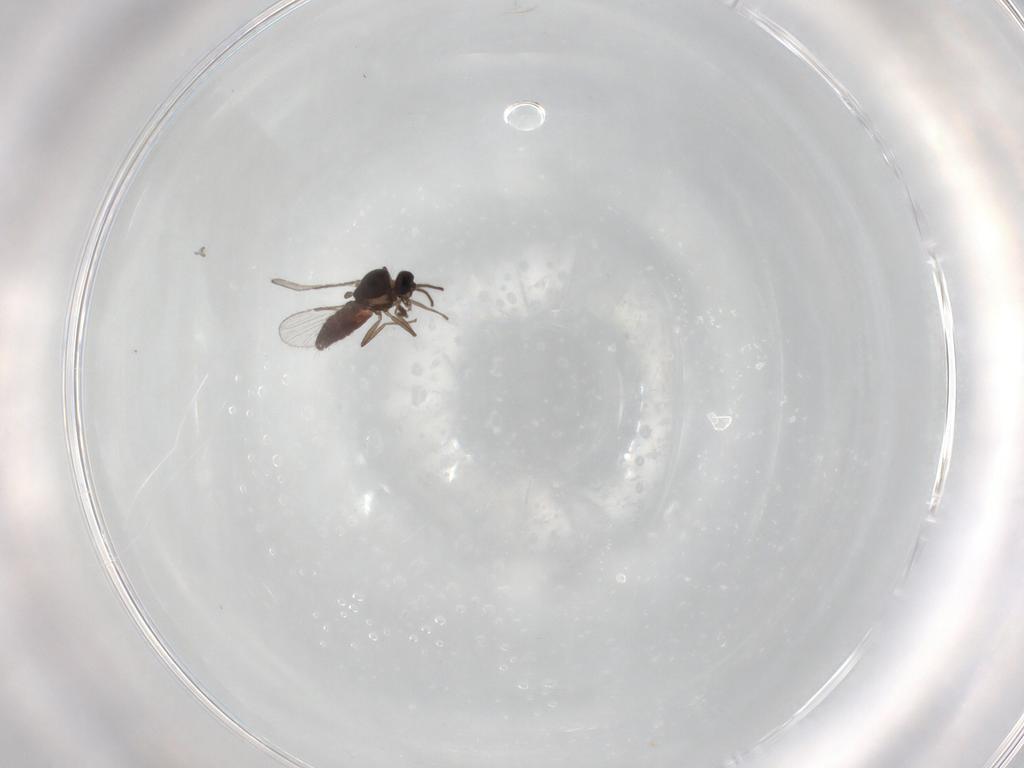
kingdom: Animalia
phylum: Arthropoda
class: Insecta
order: Diptera
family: Ceratopogonidae
